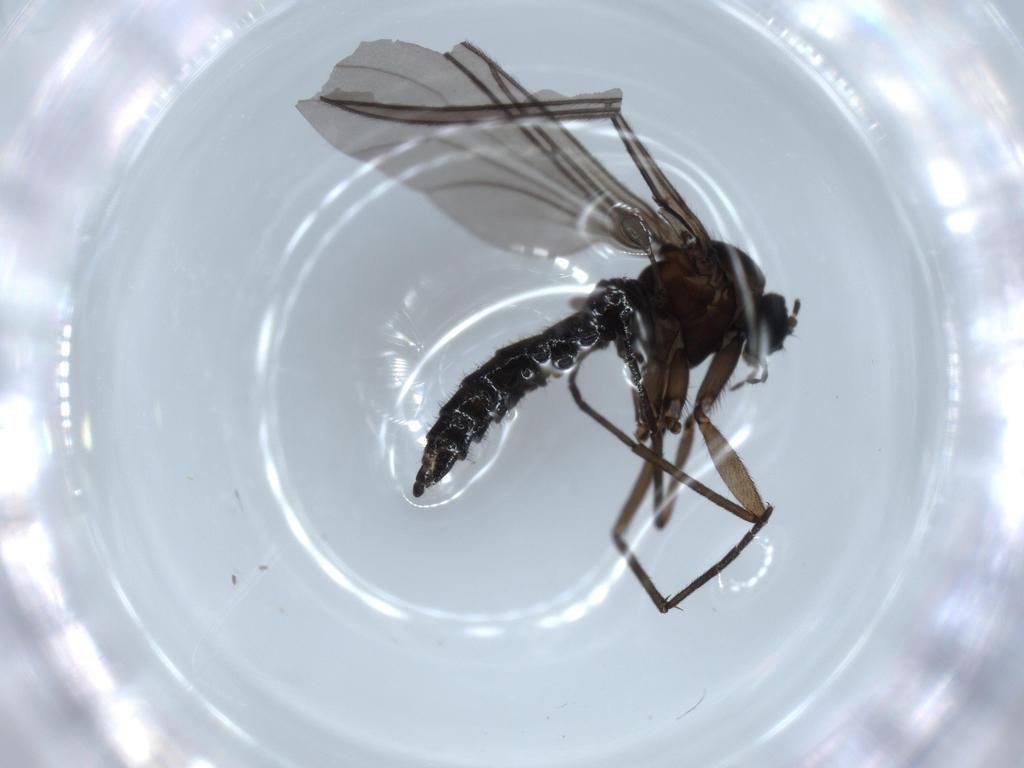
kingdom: Animalia
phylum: Arthropoda
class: Insecta
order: Diptera
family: Sciaridae
